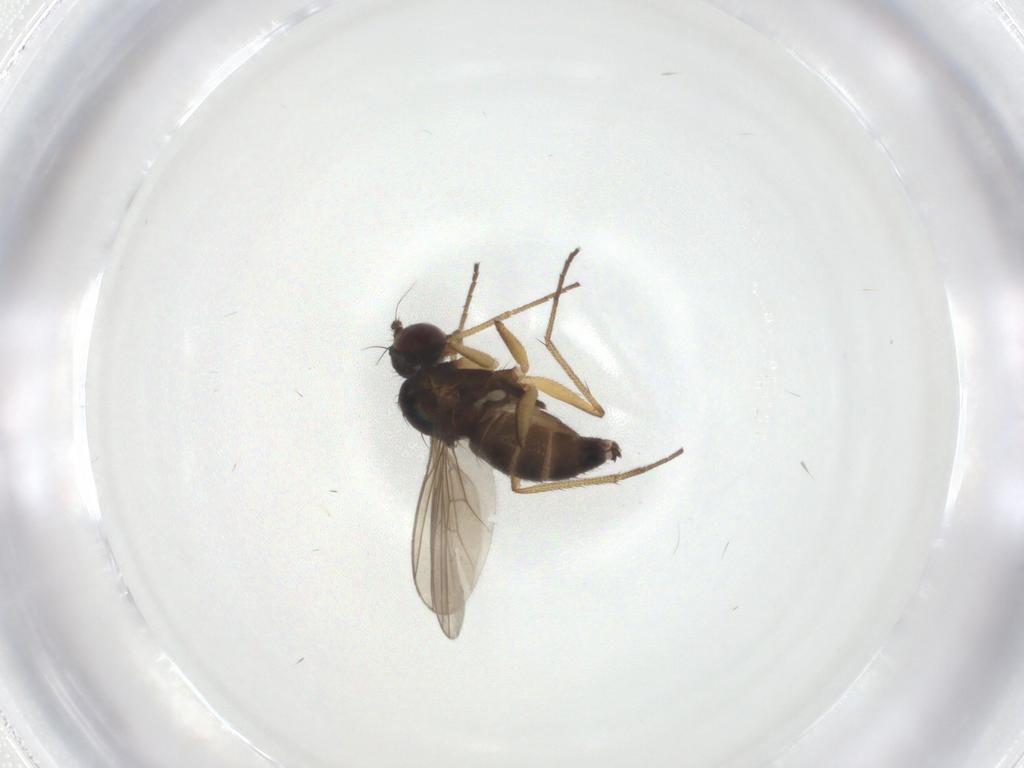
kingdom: Animalia
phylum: Arthropoda
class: Insecta
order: Diptera
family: Dolichopodidae
